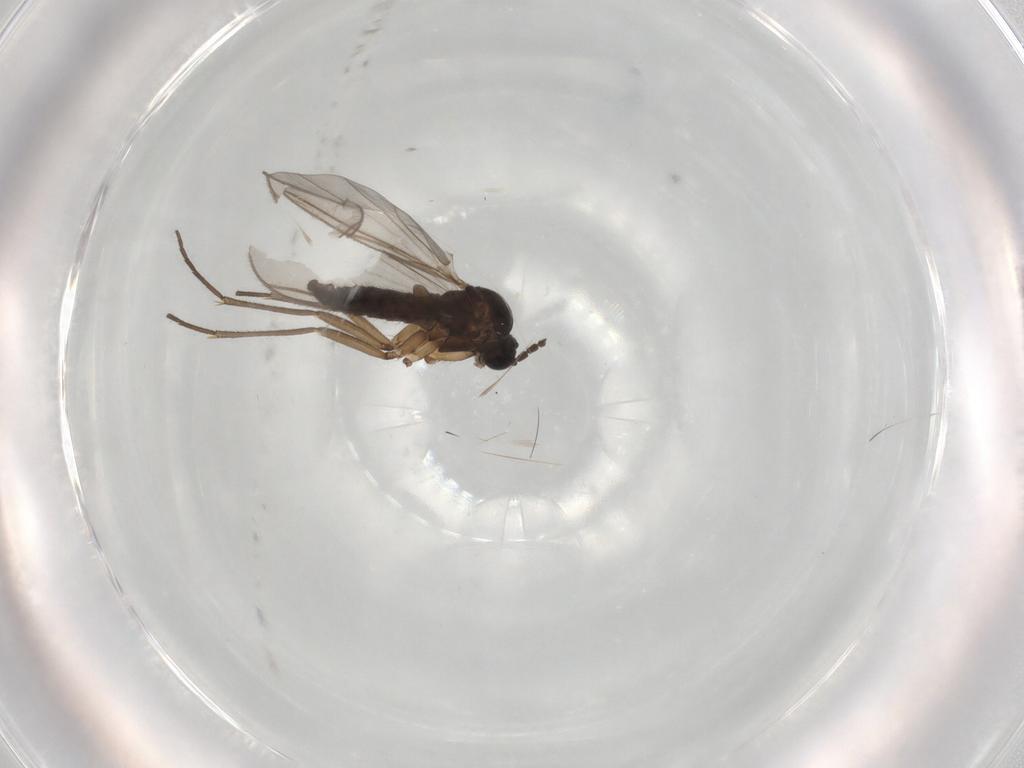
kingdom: Animalia
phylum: Arthropoda
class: Insecta
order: Diptera
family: Sciaridae
